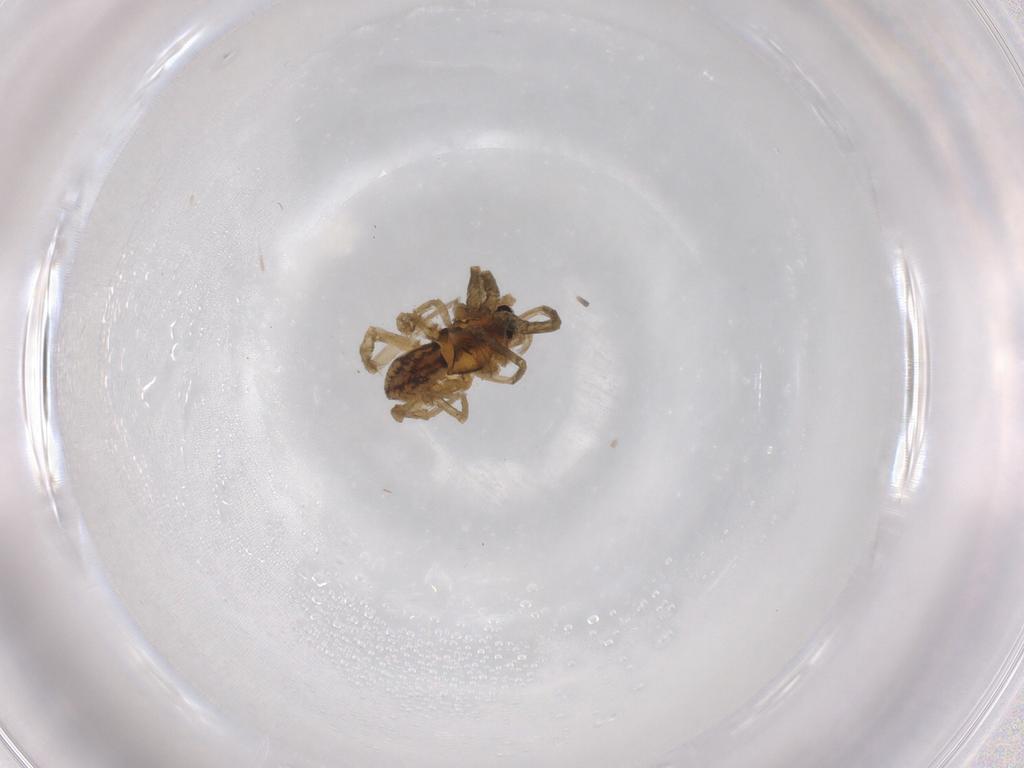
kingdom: Animalia
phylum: Arthropoda
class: Arachnida
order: Araneae
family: Lycosidae
